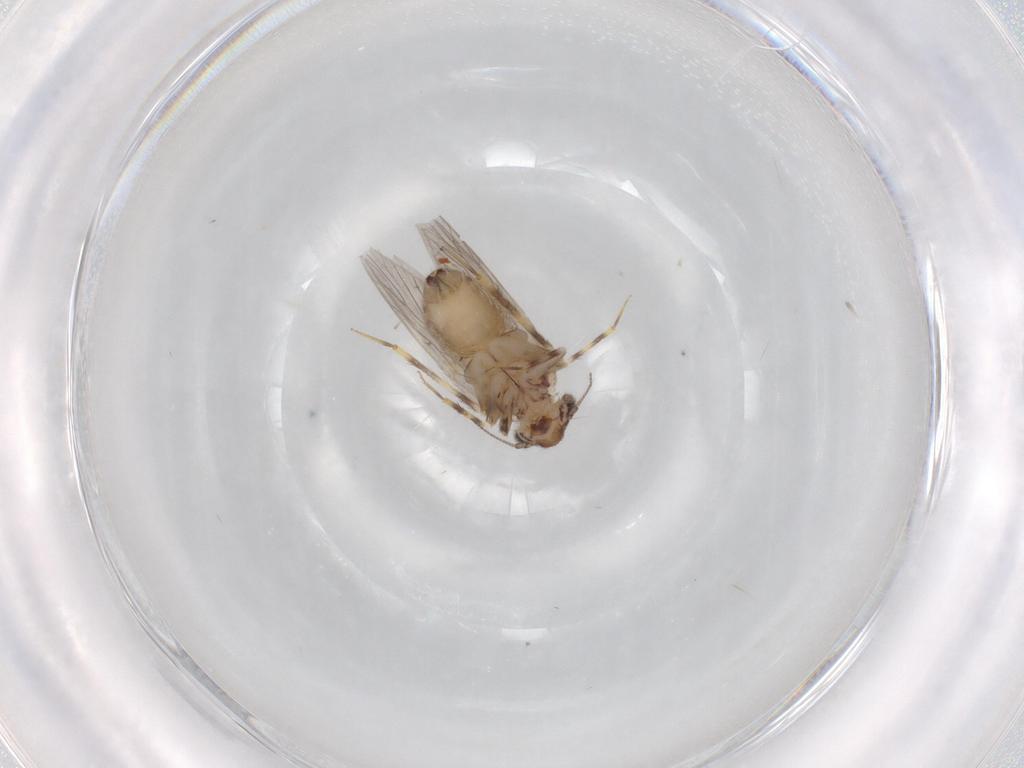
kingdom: Animalia
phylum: Arthropoda
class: Insecta
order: Psocodea
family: Lepidopsocidae
